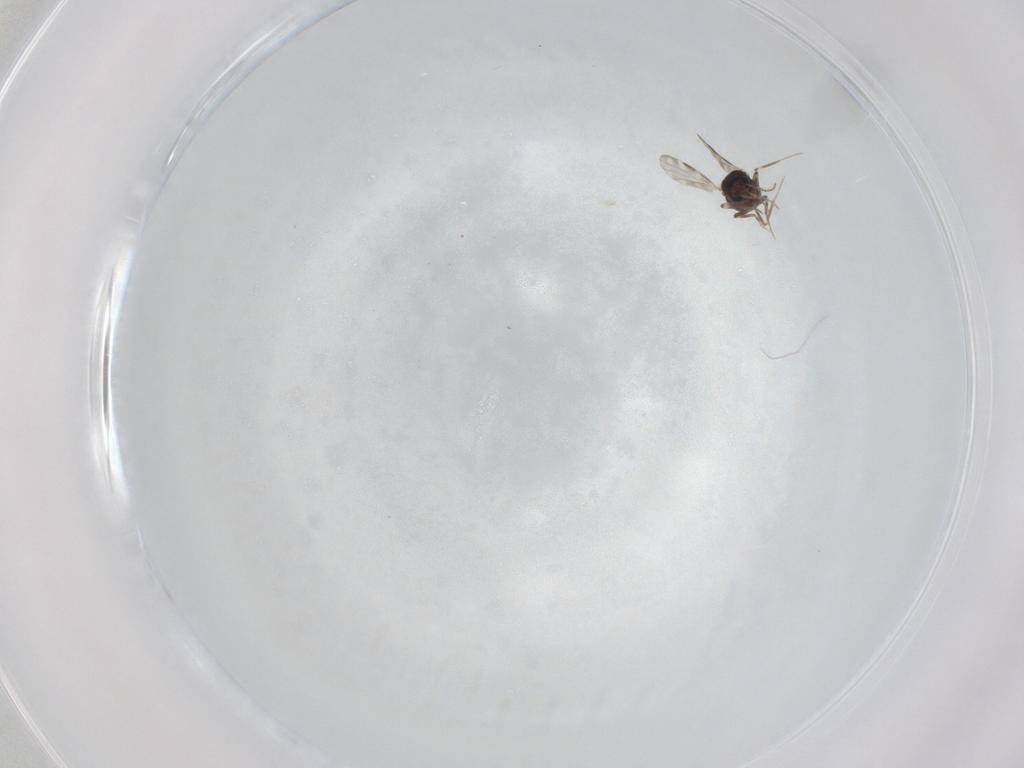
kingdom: Animalia
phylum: Arthropoda
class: Insecta
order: Diptera
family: Ceratopogonidae
